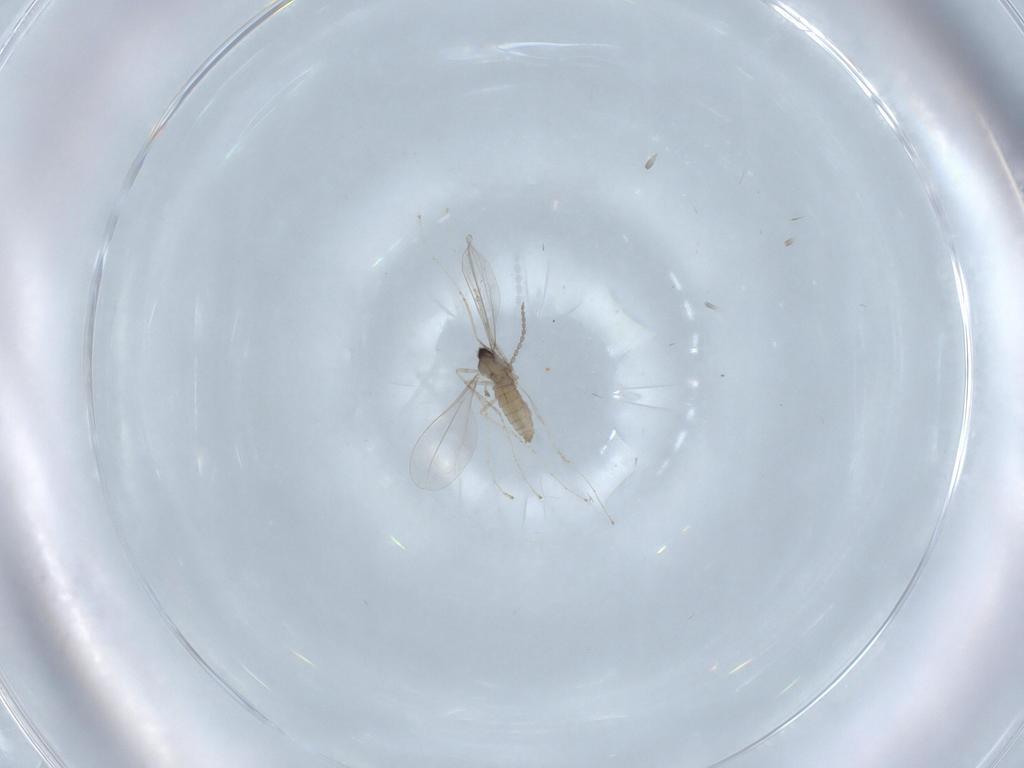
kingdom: Animalia
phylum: Arthropoda
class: Insecta
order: Diptera
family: Cecidomyiidae
